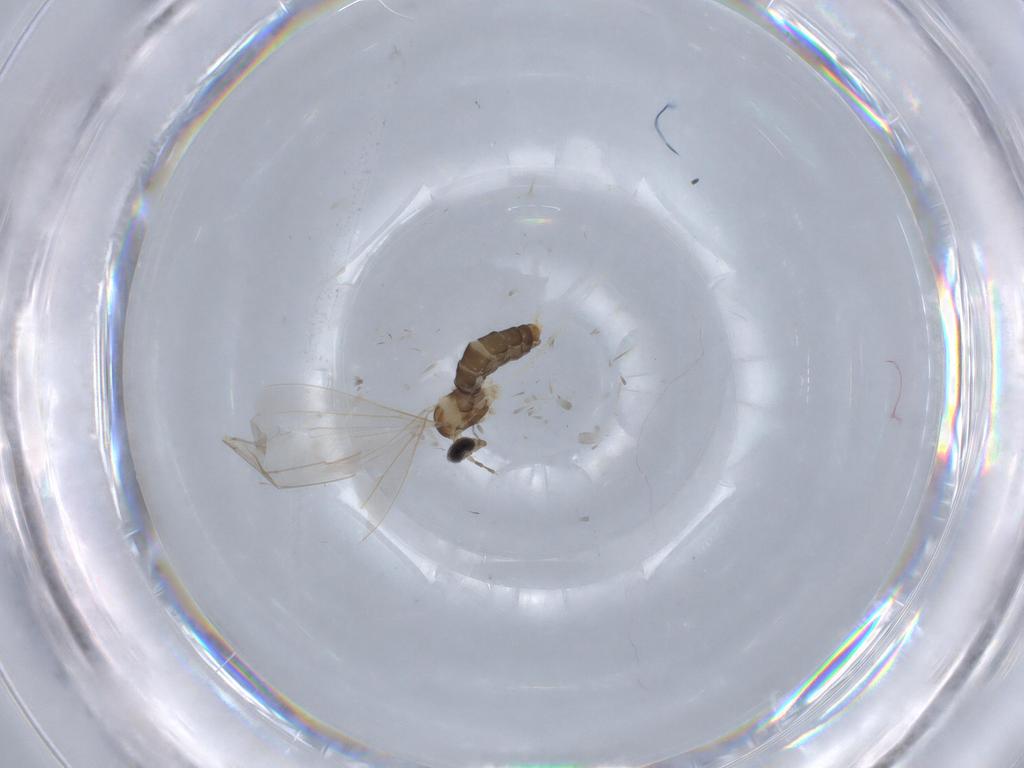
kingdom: Animalia
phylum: Arthropoda
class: Insecta
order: Diptera
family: Cecidomyiidae
